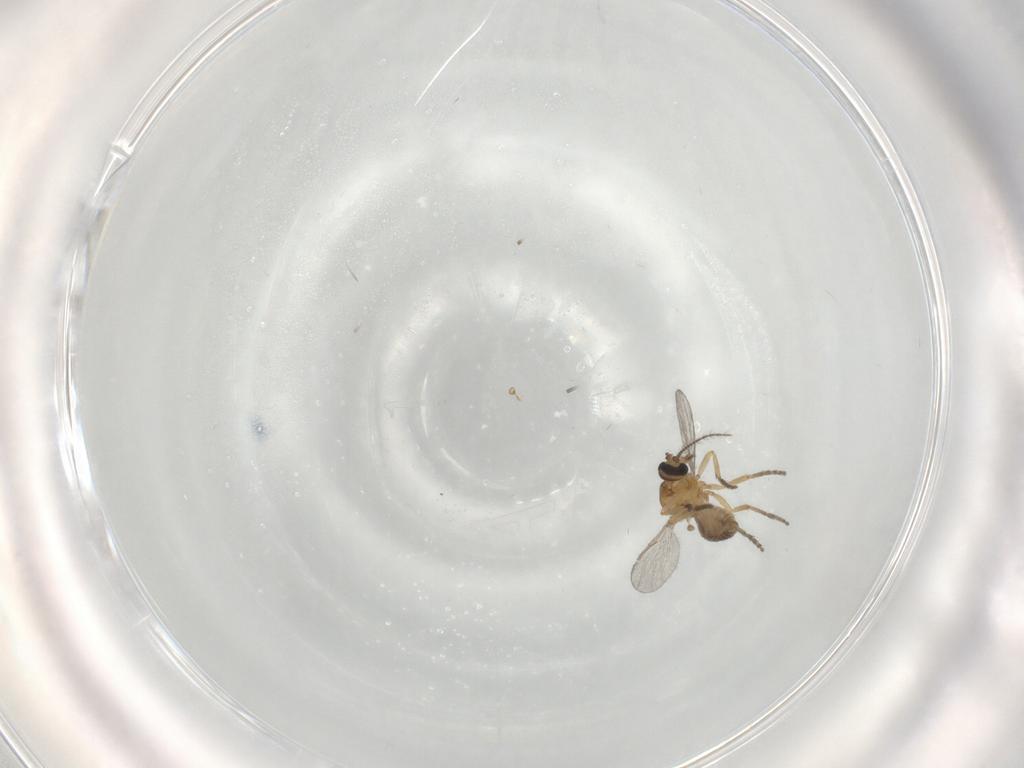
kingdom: Animalia
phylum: Arthropoda
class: Insecta
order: Diptera
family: Ceratopogonidae
